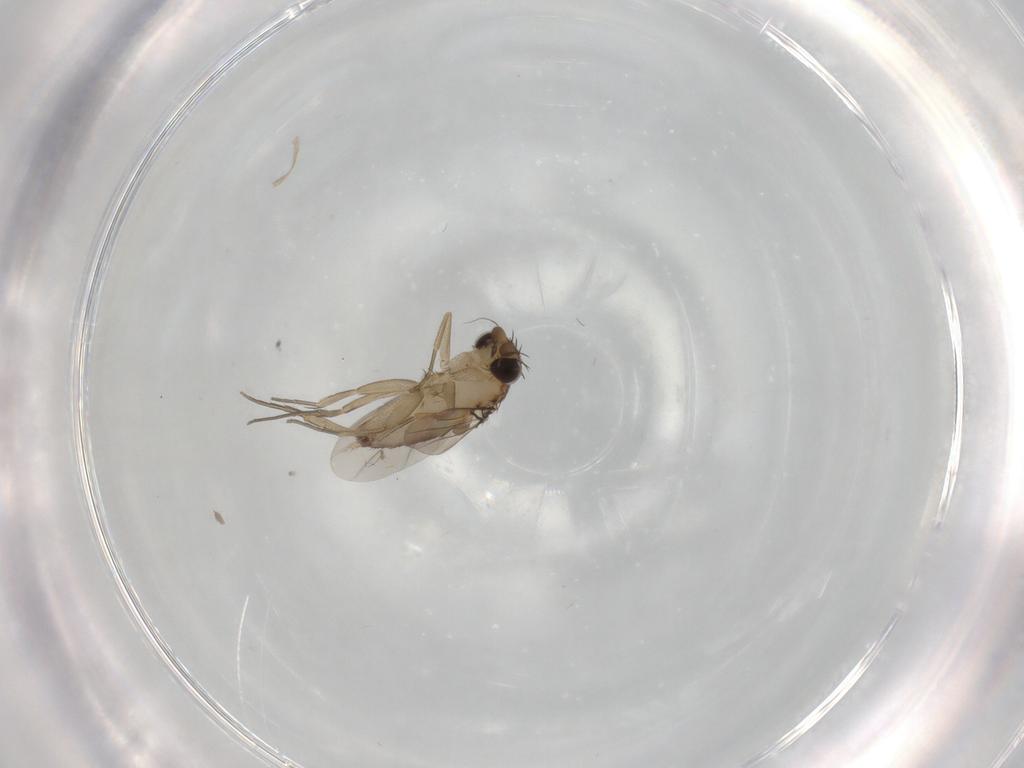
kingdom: Animalia
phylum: Arthropoda
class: Insecta
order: Diptera
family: Phoridae
